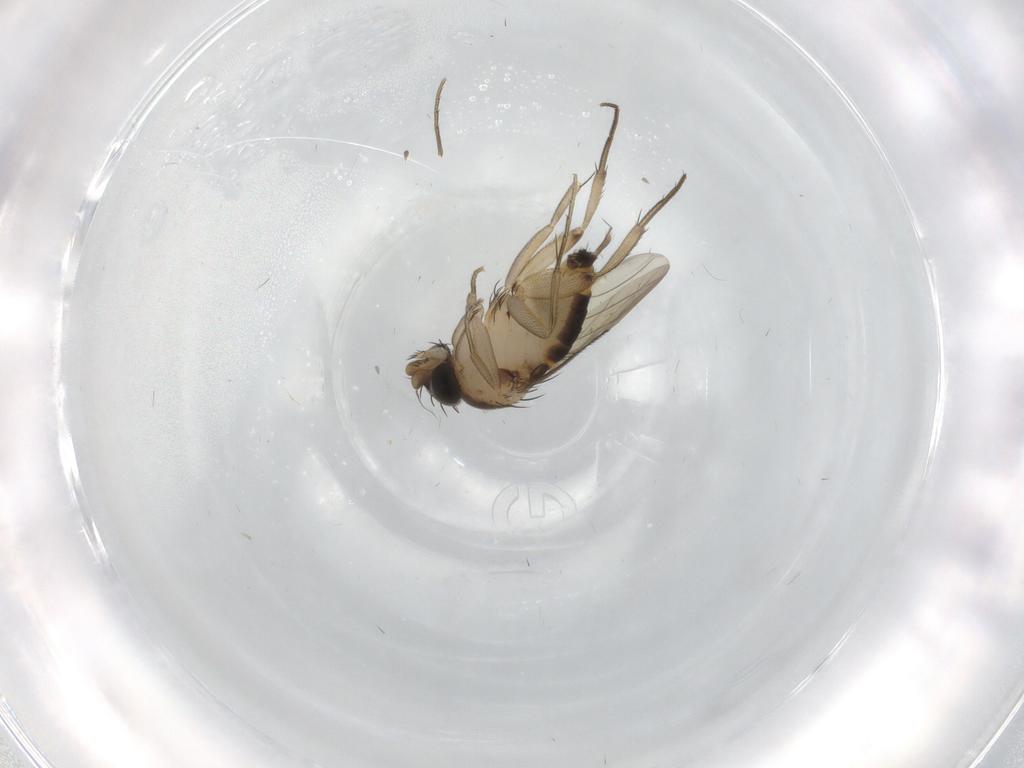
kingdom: Animalia
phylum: Arthropoda
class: Insecta
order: Diptera
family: Phoridae
